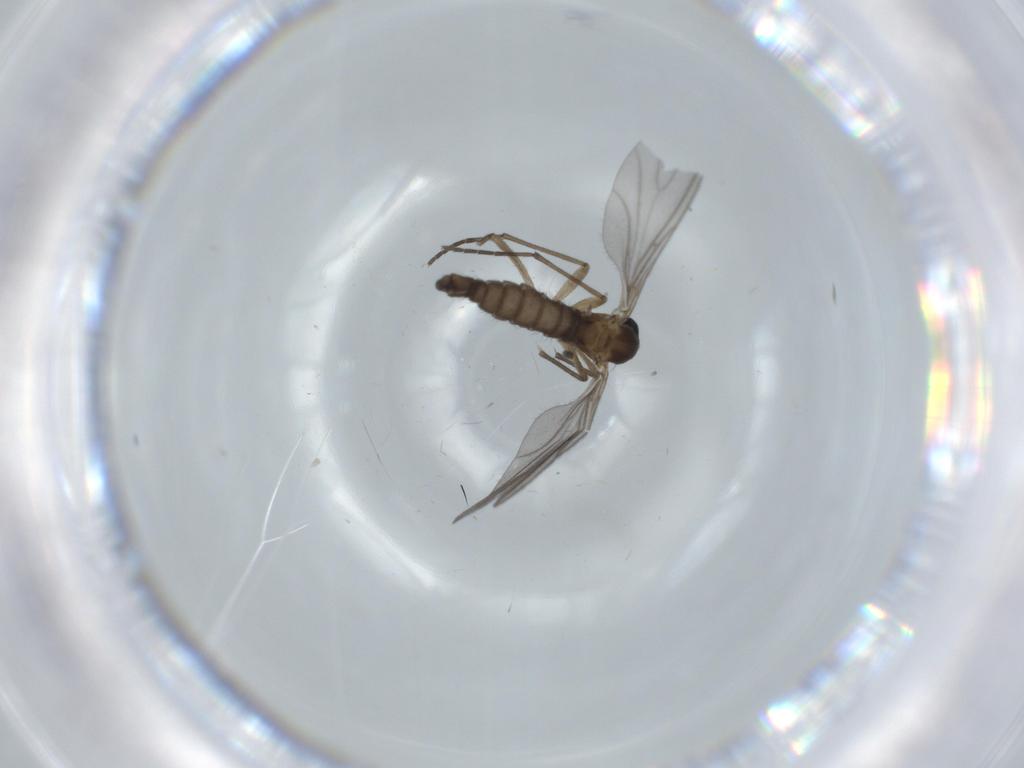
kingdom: Animalia
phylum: Arthropoda
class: Insecta
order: Diptera
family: Sciaridae
